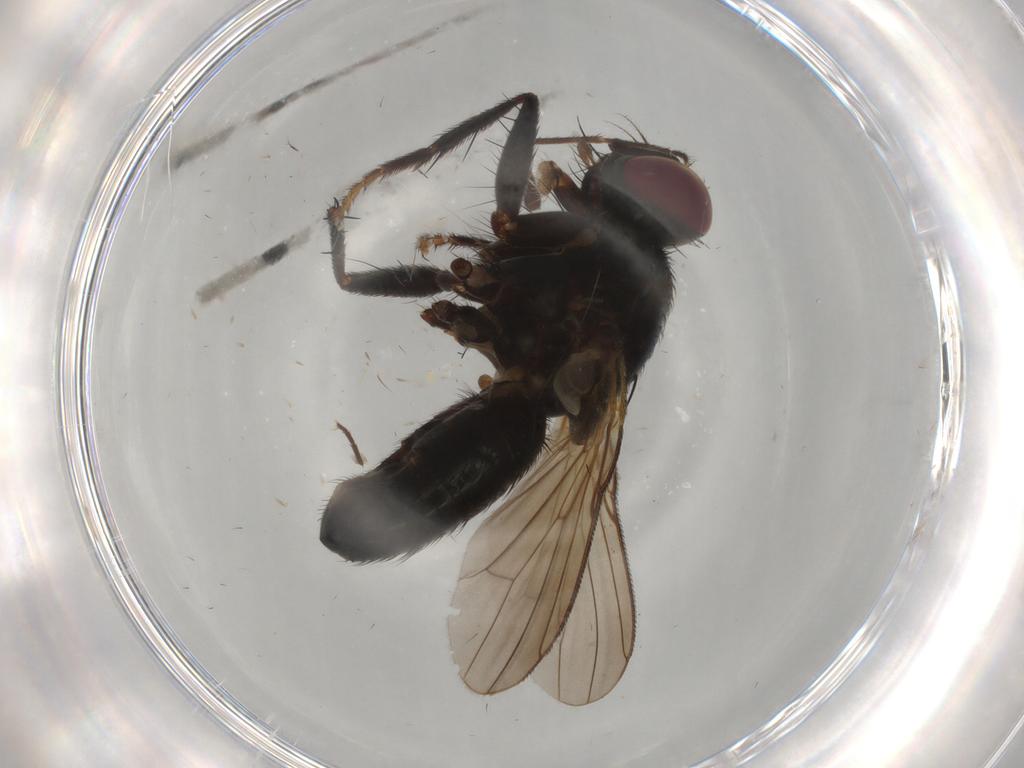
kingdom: Animalia
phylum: Arthropoda
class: Insecta
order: Diptera
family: Muscidae
